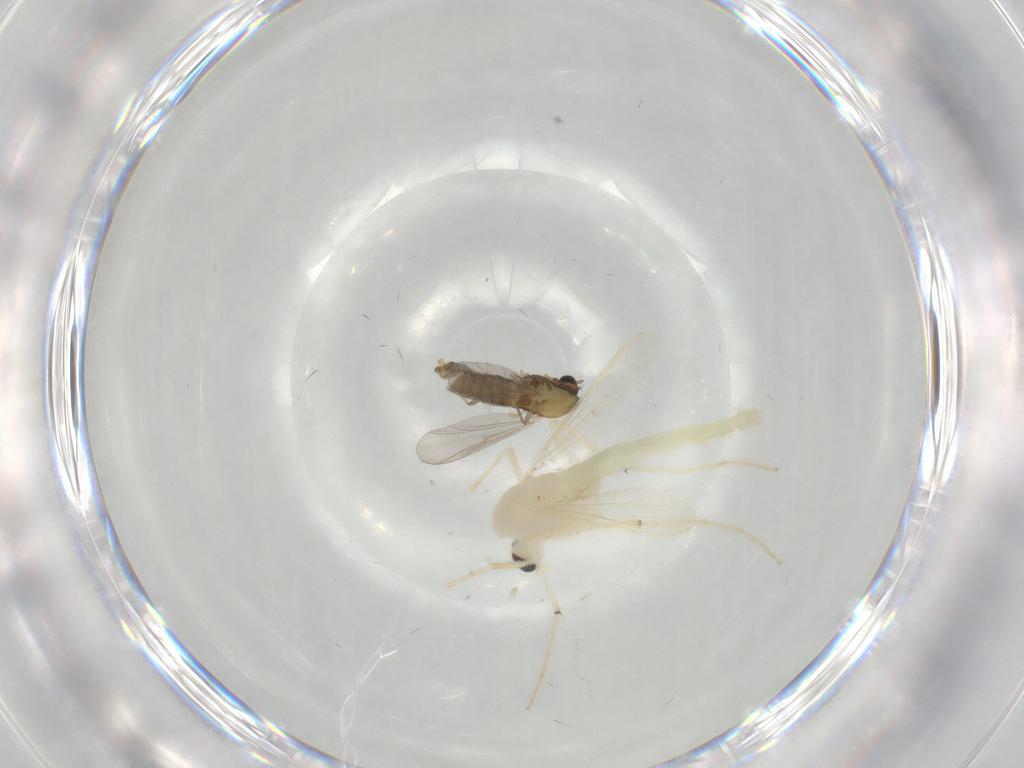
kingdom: Animalia
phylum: Arthropoda
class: Insecta
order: Diptera
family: Chironomidae
